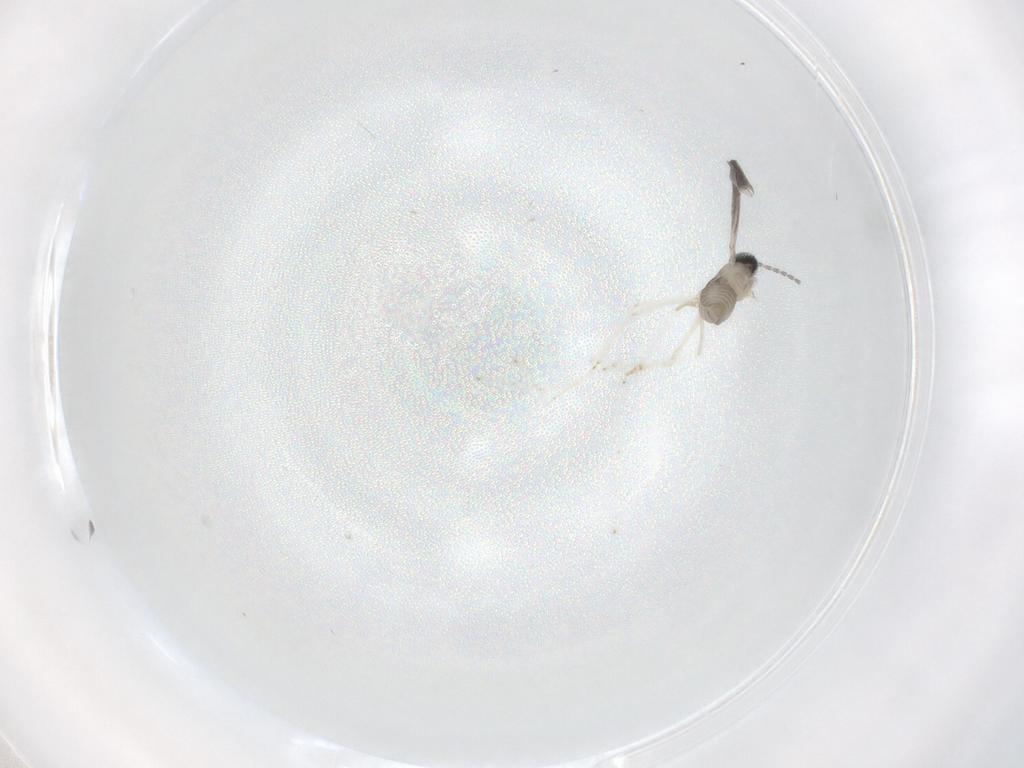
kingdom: Animalia
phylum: Arthropoda
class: Insecta
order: Diptera
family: Cecidomyiidae
